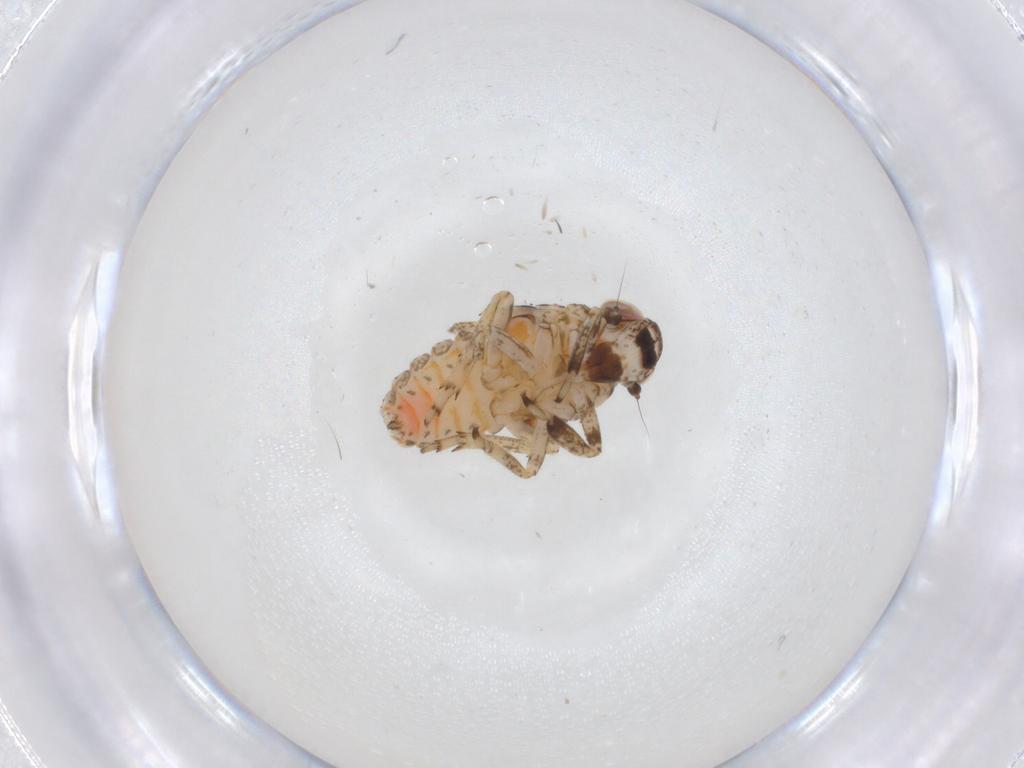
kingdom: Animalia
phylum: Arthropoda
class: Insecta
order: Hemiptera
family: Issidae
